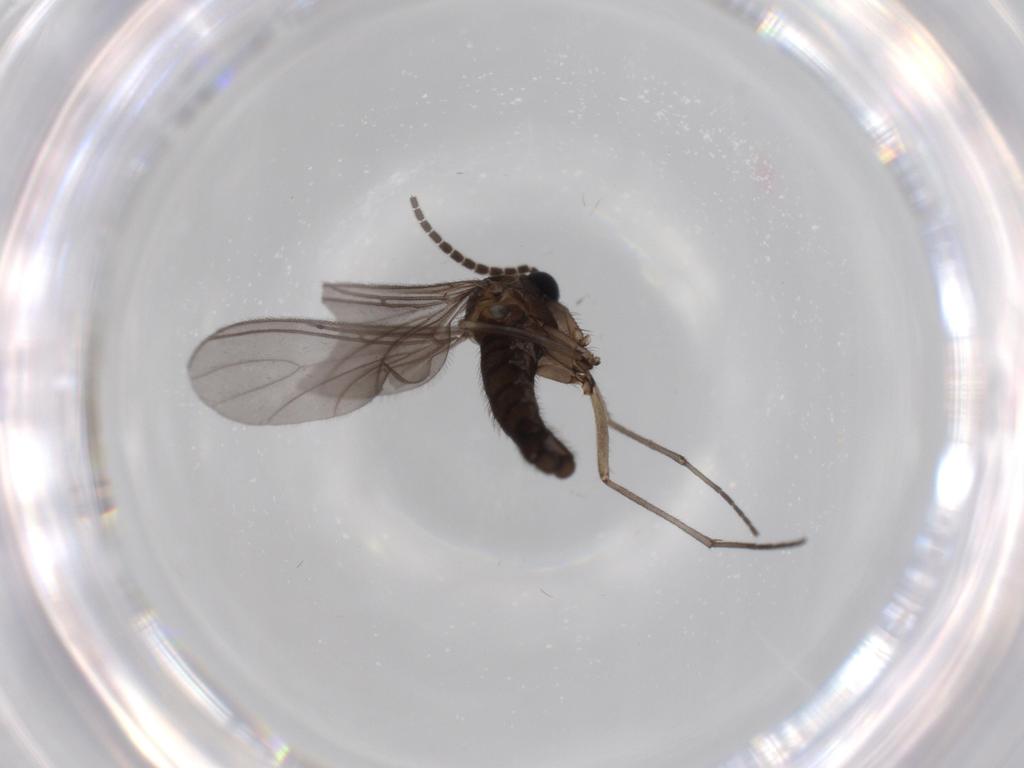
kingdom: Animalia
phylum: Arthropoda
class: Insecta
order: Diptera
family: Sciaridae
